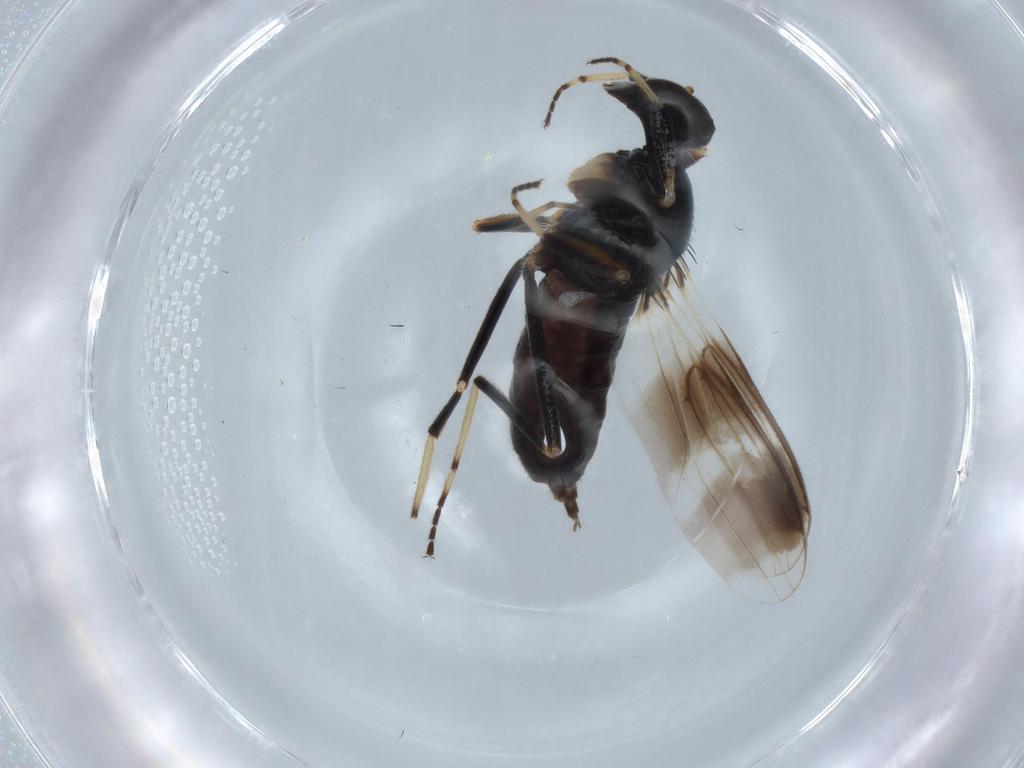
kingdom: Animalia
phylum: Arthropoda
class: Insecta
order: Diptera
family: Hybotidae
